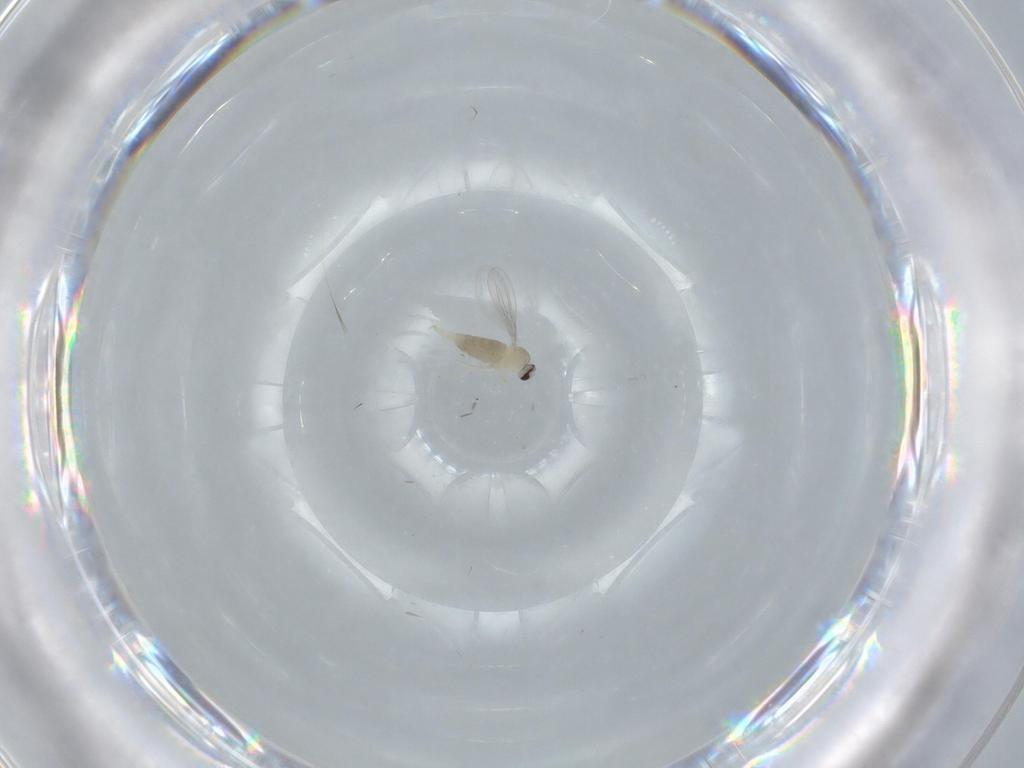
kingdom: Animalia
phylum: Arthropoda
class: Insecta
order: Diptera
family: Cecidomyiidae
